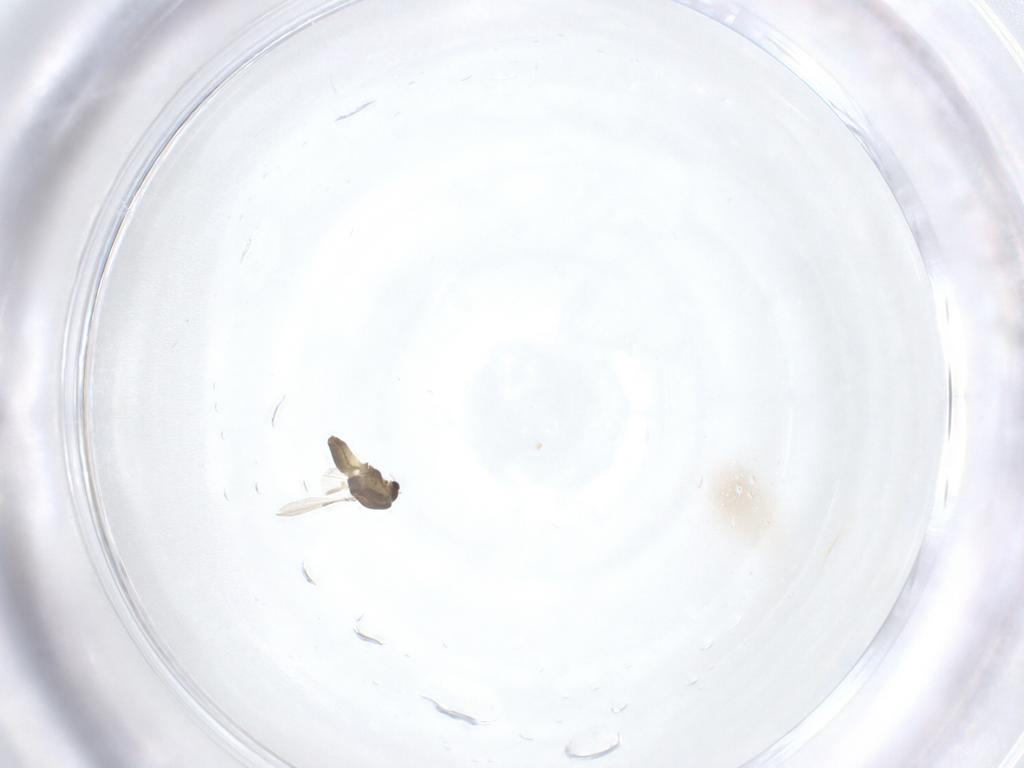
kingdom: Animalia
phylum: Arthropoda
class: Insecta
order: Diptera
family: Chironomidae
